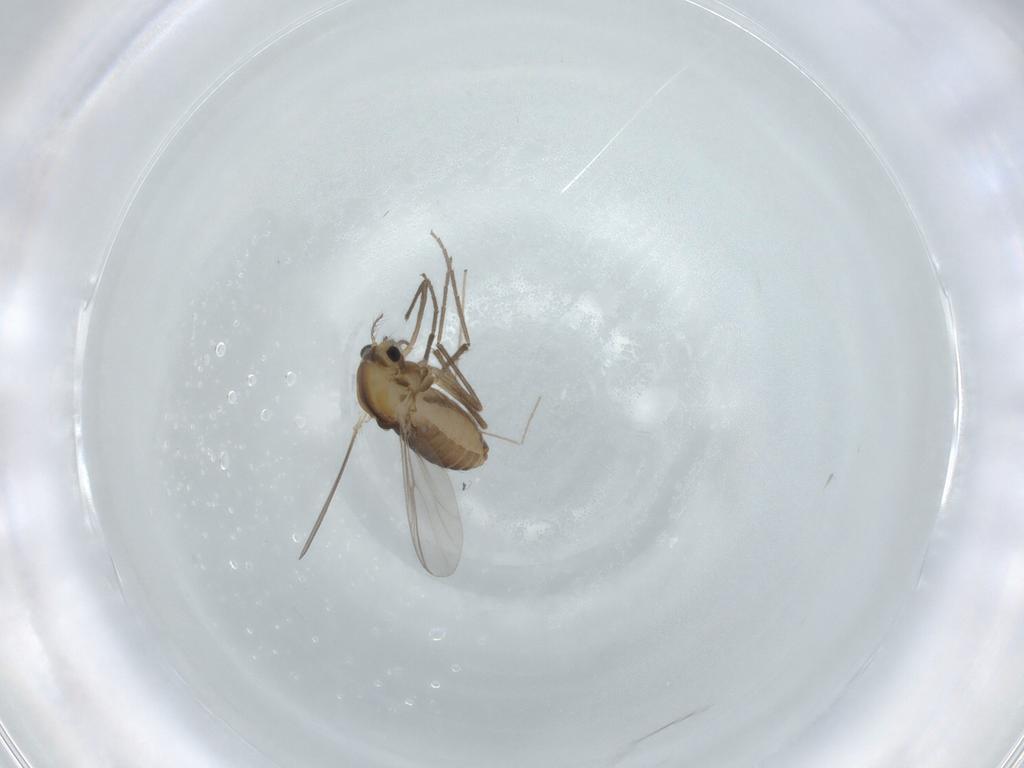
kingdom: Animalia
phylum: Arthropoda
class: Insecta
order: Diptera
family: Chironomidae
